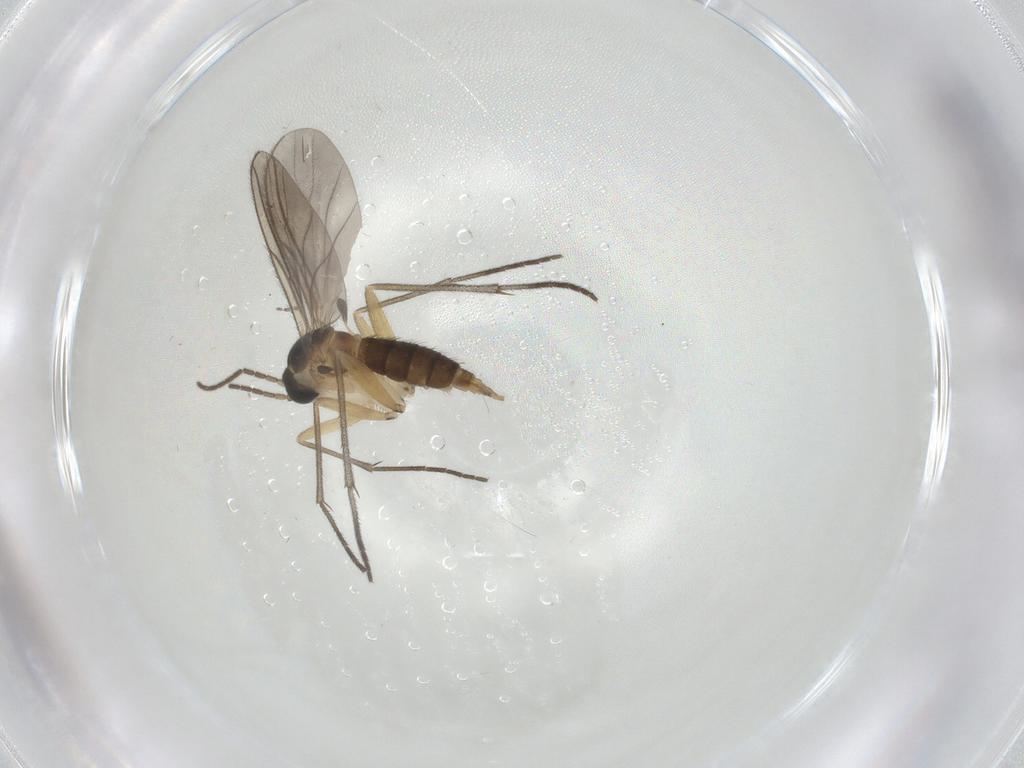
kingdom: Animalia
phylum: Arthropoda
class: Insecta
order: Diptera
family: Sciaridae
